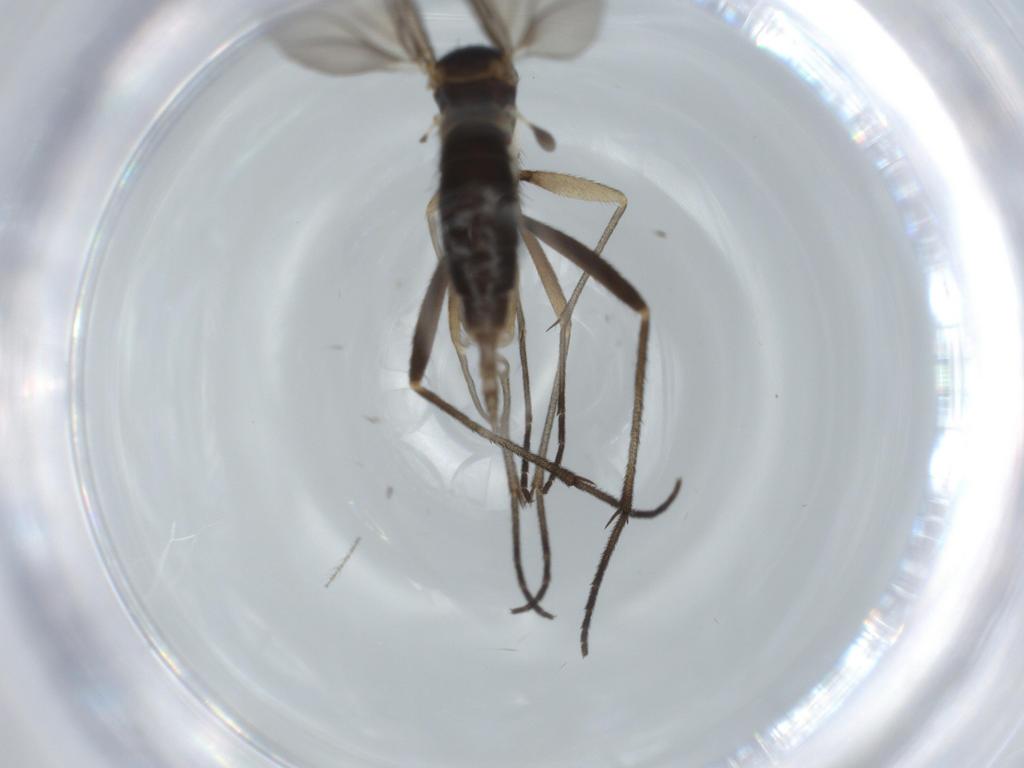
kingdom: Animalia
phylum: Arthropoda
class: Insecta
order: Diptera
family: Sciaridae
